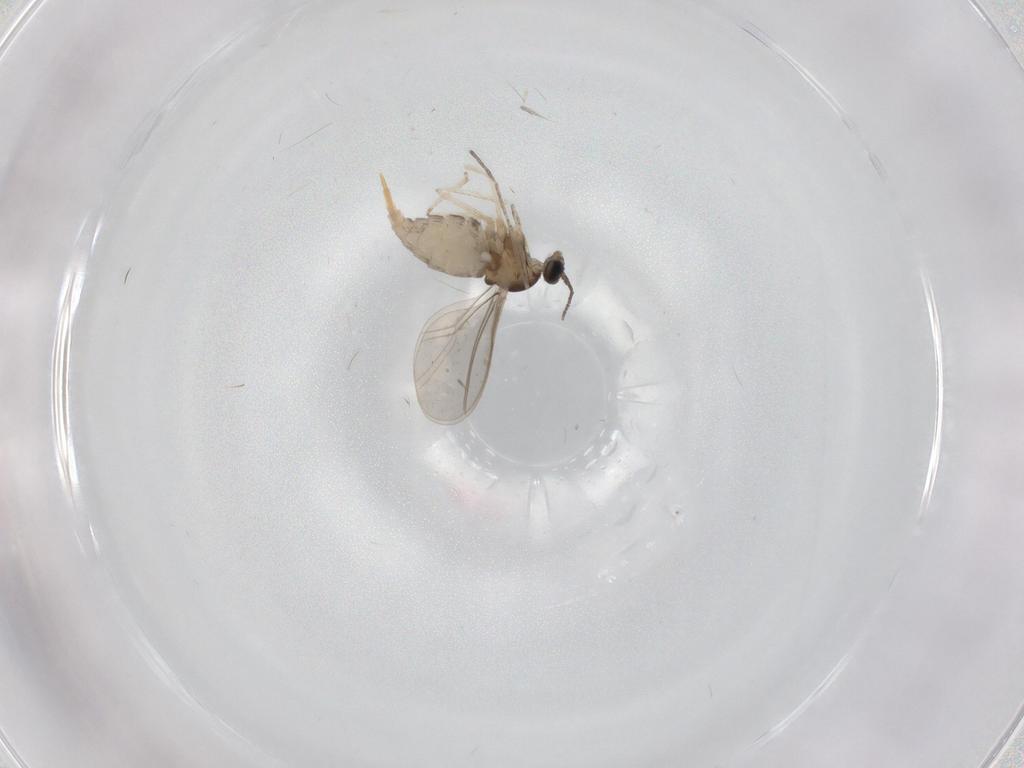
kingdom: Animalia
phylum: Arthropoda
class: Insecta
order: Diptera
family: Cecidomyiidae
